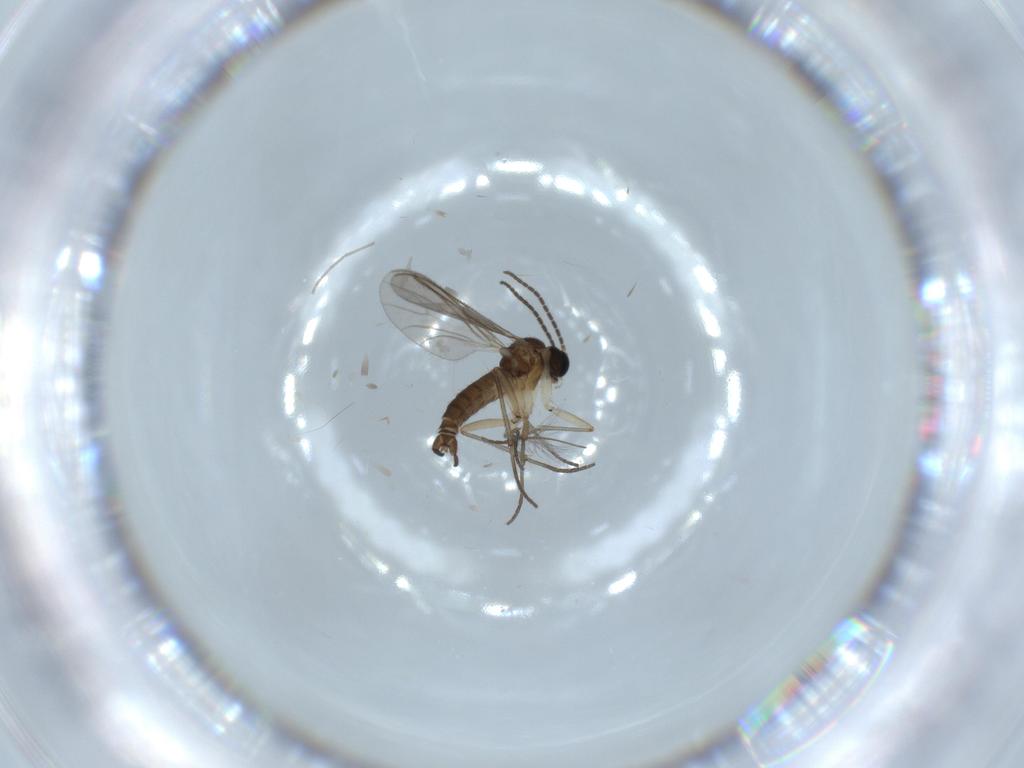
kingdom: Animalia
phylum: Arthropoda
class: Insecta
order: Diptera
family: Sciaridae
